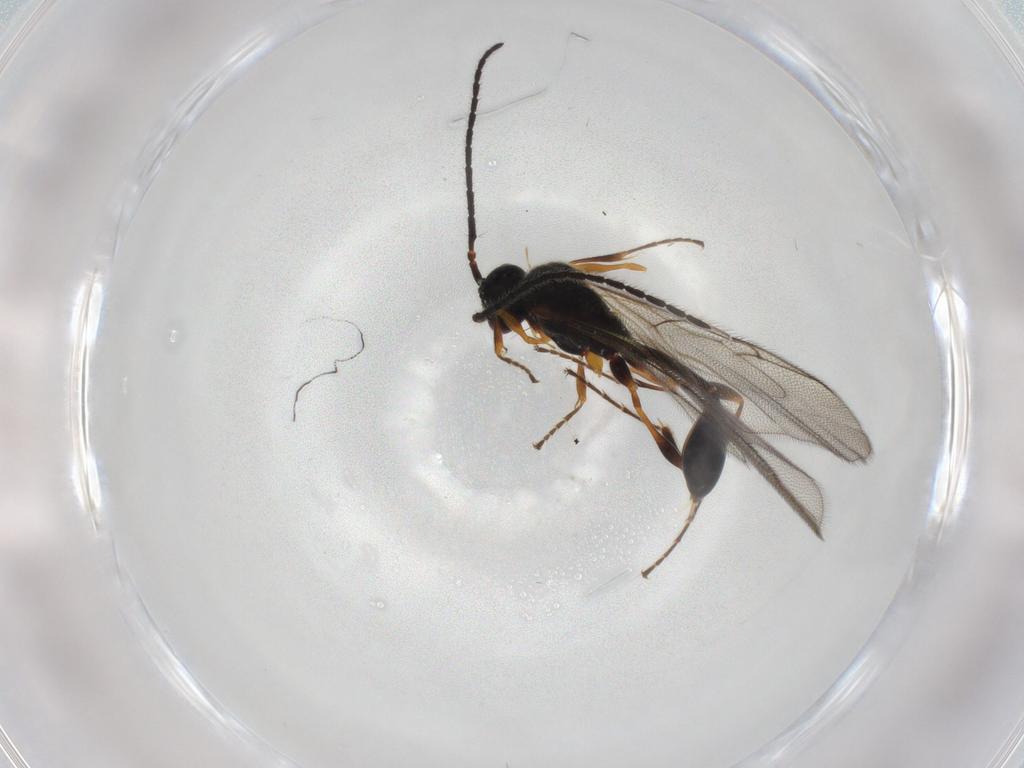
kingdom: Animalia
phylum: Arthropoda
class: Insecta
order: Hymenoptera
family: Diapriidae
